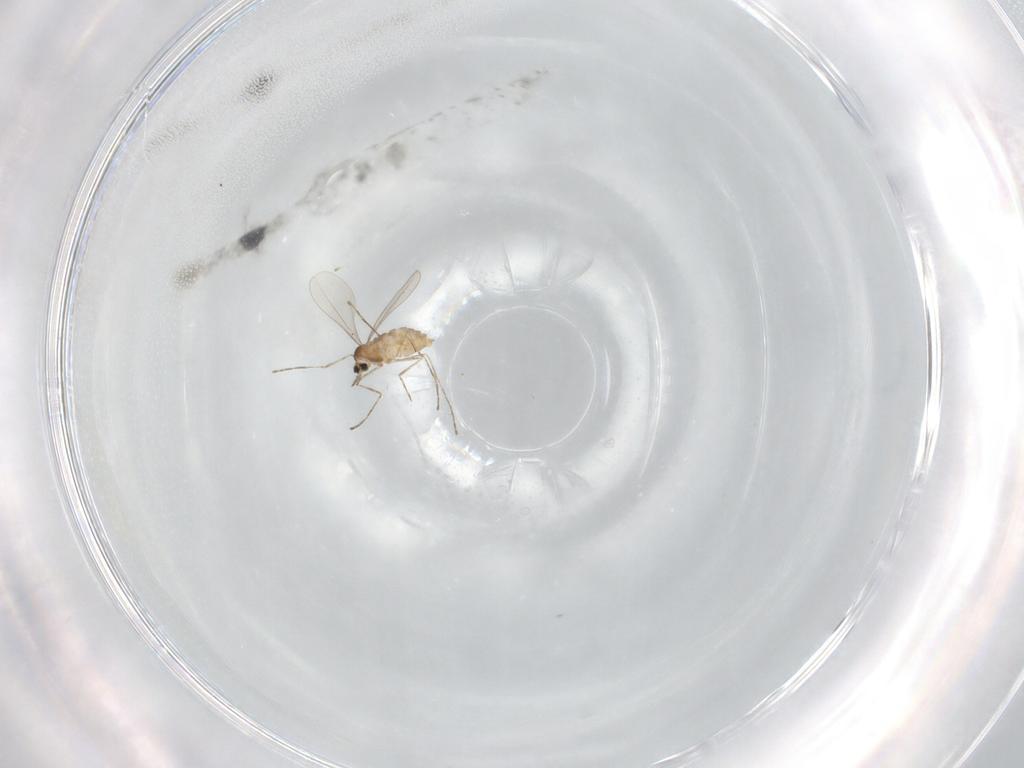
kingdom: Animalia
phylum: Arthropoda
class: Insecta
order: Diptera
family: Cecidomyiidae
